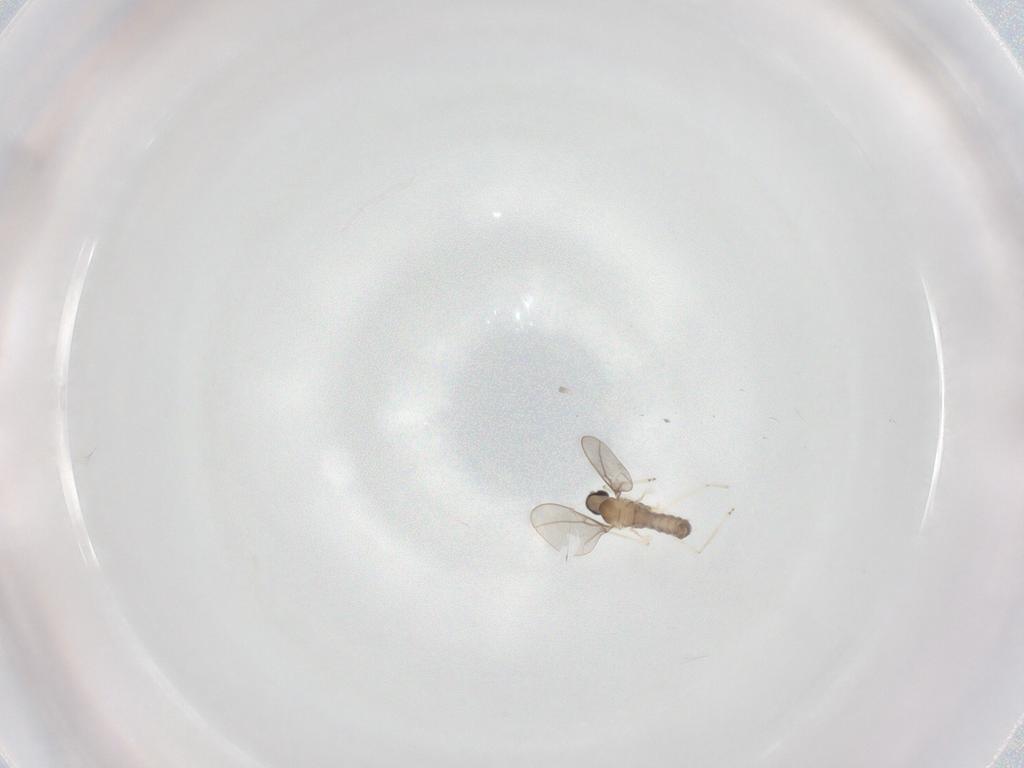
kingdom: Animalia
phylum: Arthropoda
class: Insecta
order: Diptera
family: Cecidomyiidae
